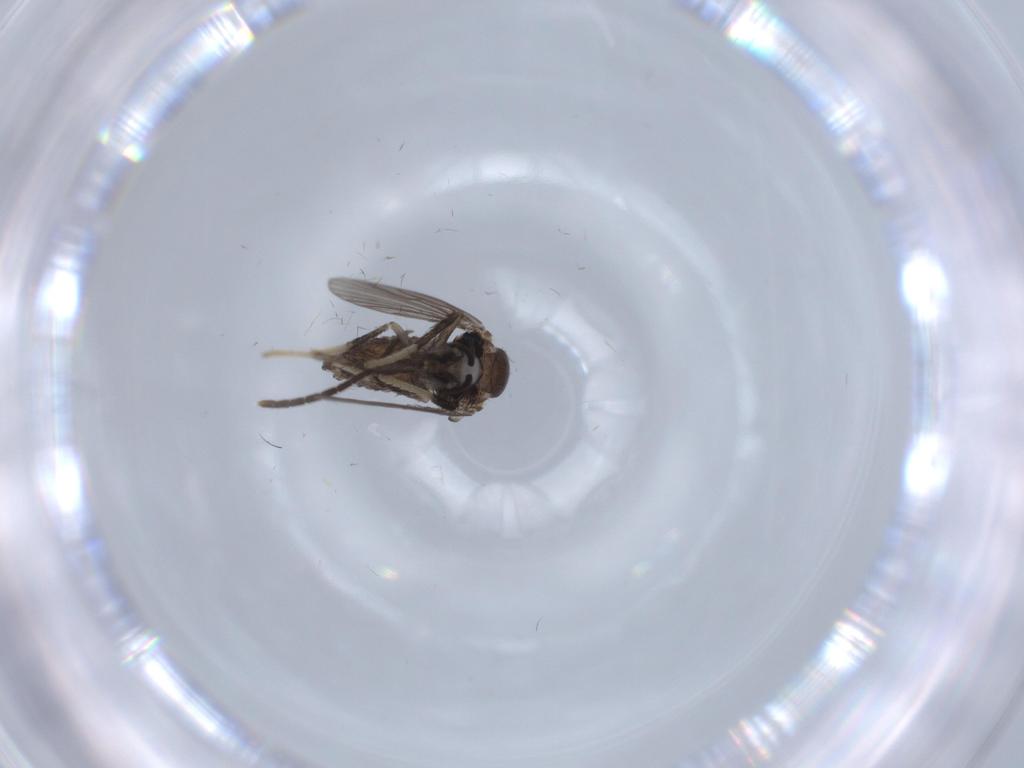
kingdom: Animalia
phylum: Arthropoda
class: Insecta
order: Diptera
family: Psychodidae
